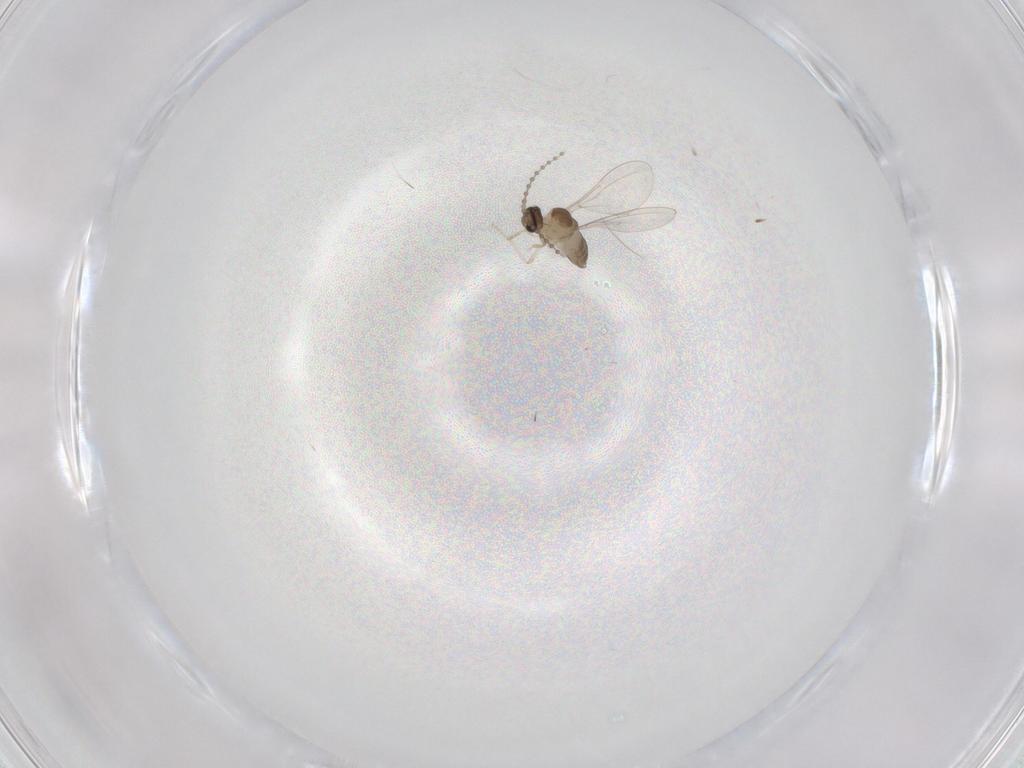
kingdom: Animalia
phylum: Arthropoda
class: Insecta
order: Diptera
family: Cecidomyiidae
